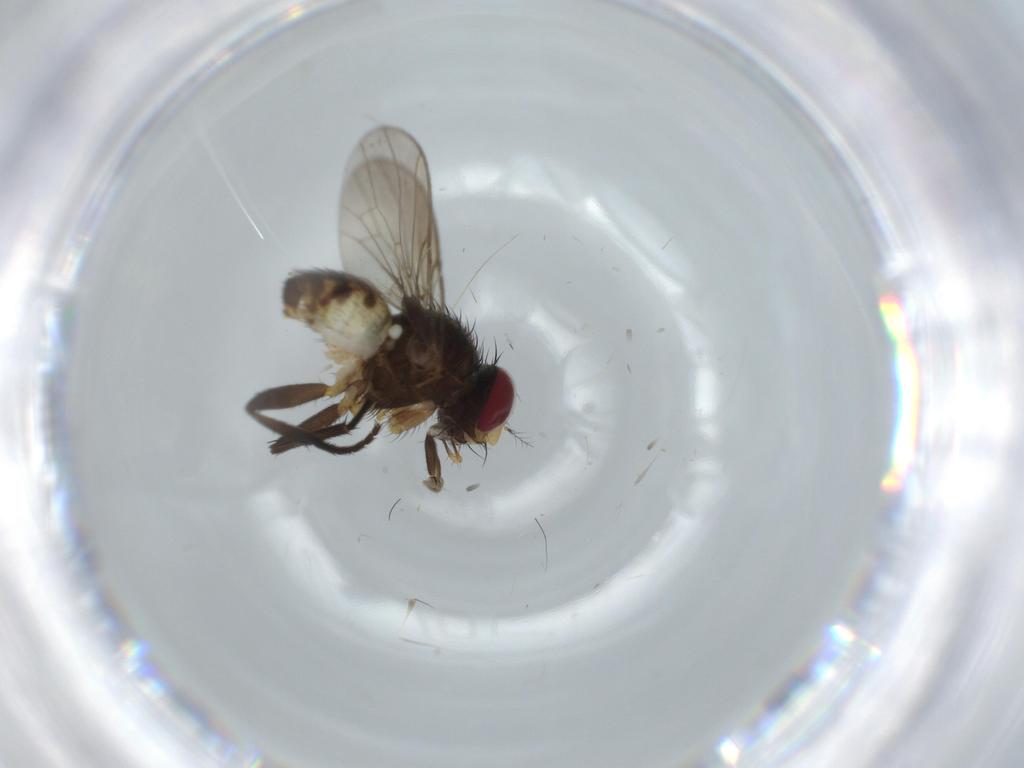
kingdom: Animalia
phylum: Arthropoda
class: Insecta
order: Diptera
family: Anthomyiidae
